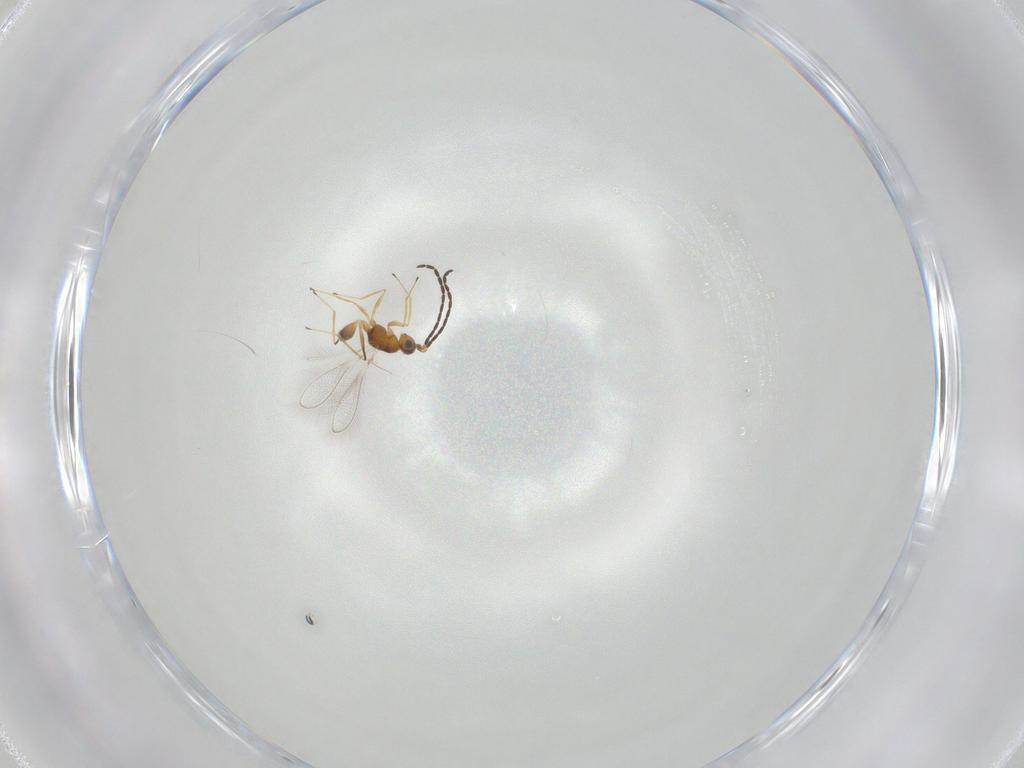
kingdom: Animalia
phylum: Arthropoda
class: Insecta
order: Hymenoptera
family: Mymaridae
